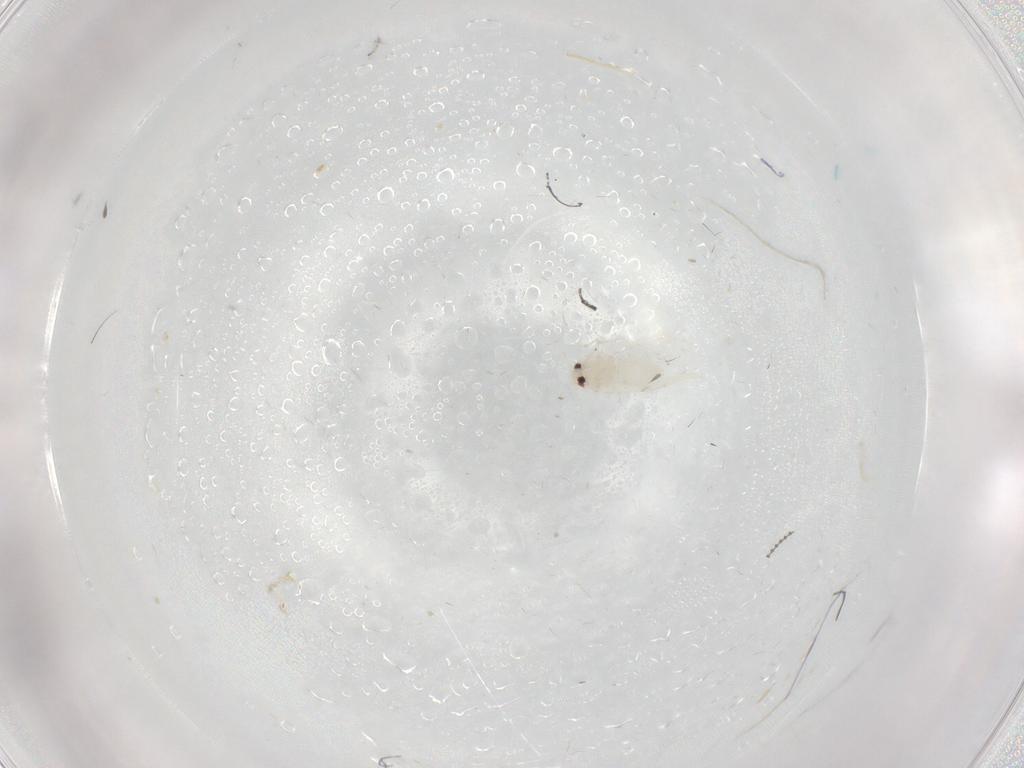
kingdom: Animalia
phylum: Arthropoda
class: Insecta
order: Hemiptera
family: Aleyrodidae
